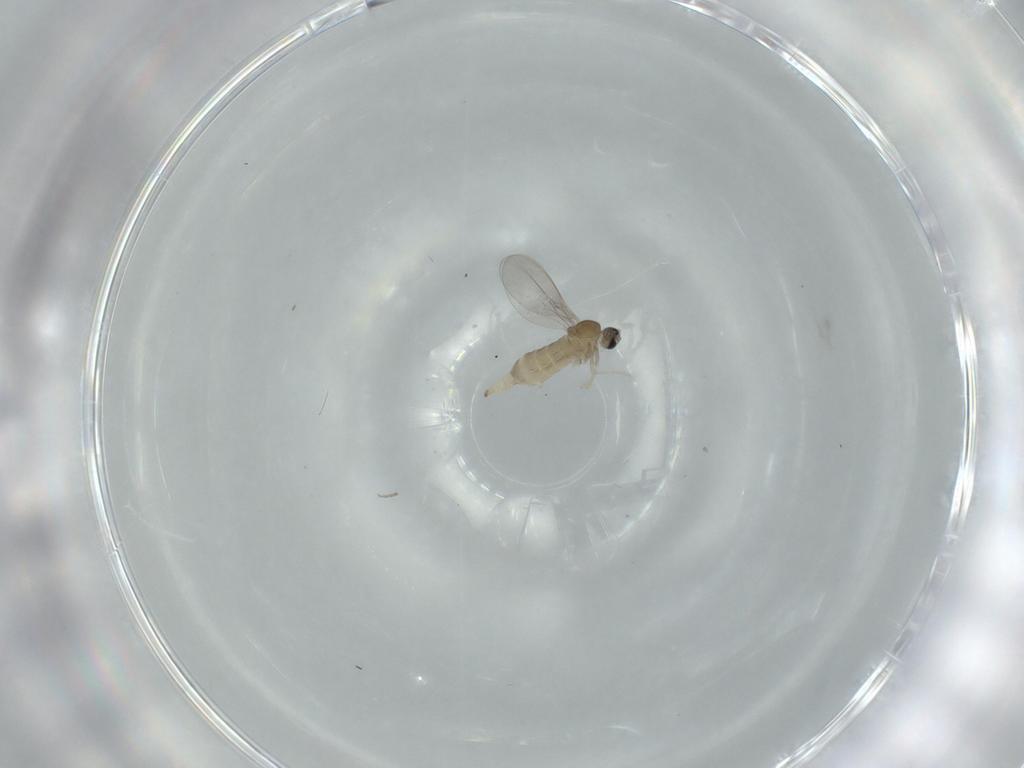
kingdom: Animalia
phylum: Arthropoda
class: Insecta
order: Diptera
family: Cecidomyiidae
